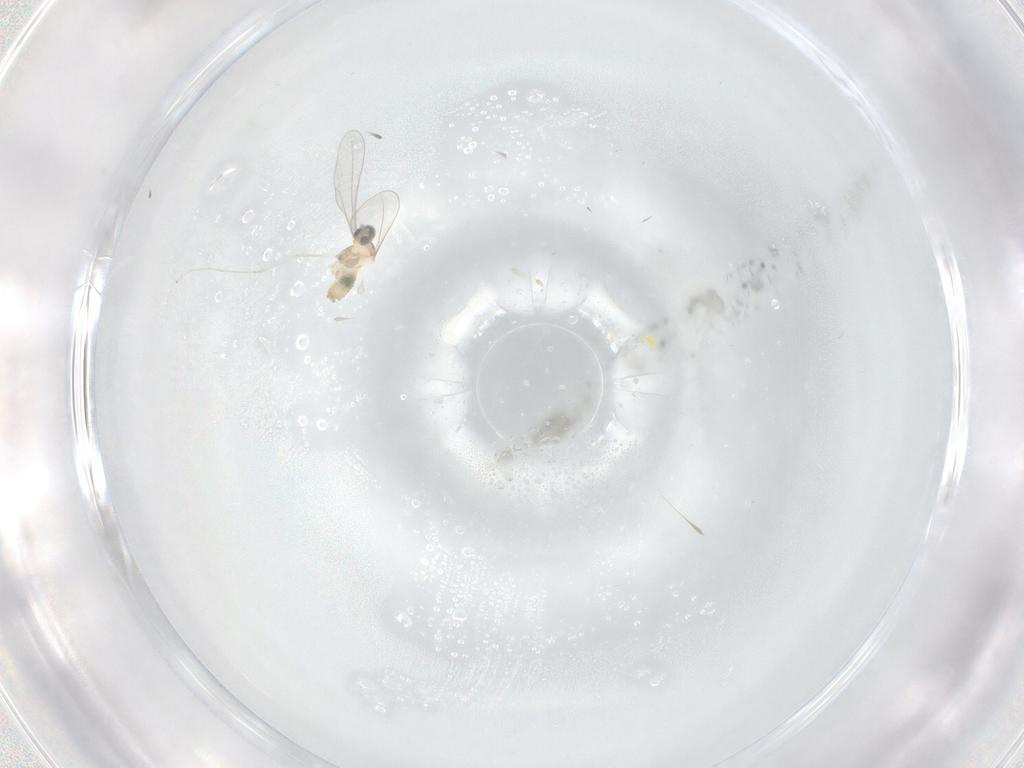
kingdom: Animalia
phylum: Arthropoda
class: Insecta
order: Diptera
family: Cecidomyiidae
